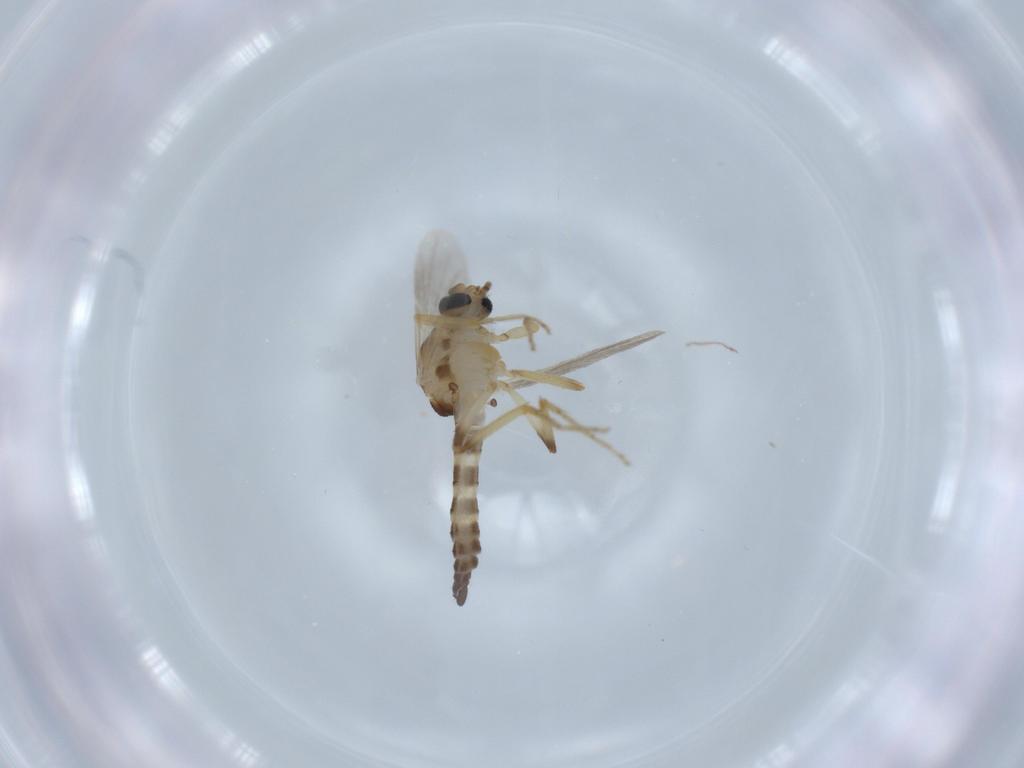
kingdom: Animalia
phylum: Arthropoda
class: Insecta
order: Diptera
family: Ceratopogonidae
